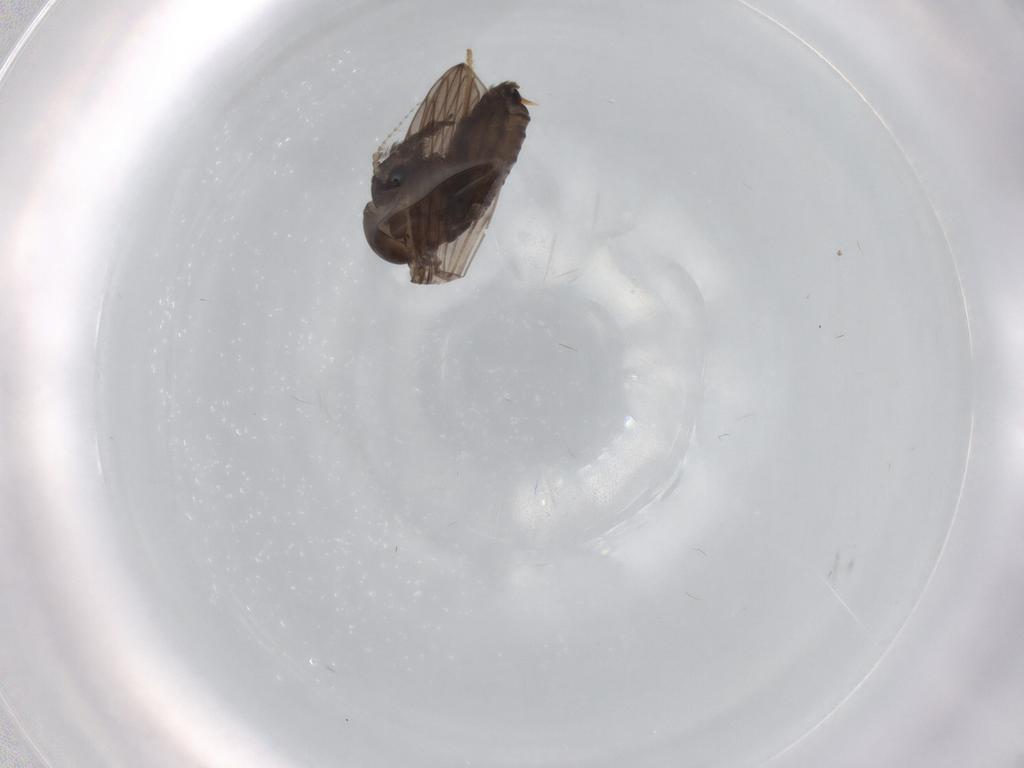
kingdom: Animalia
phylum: Arthropoda
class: Insecta
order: Diptera
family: Psychodidae
